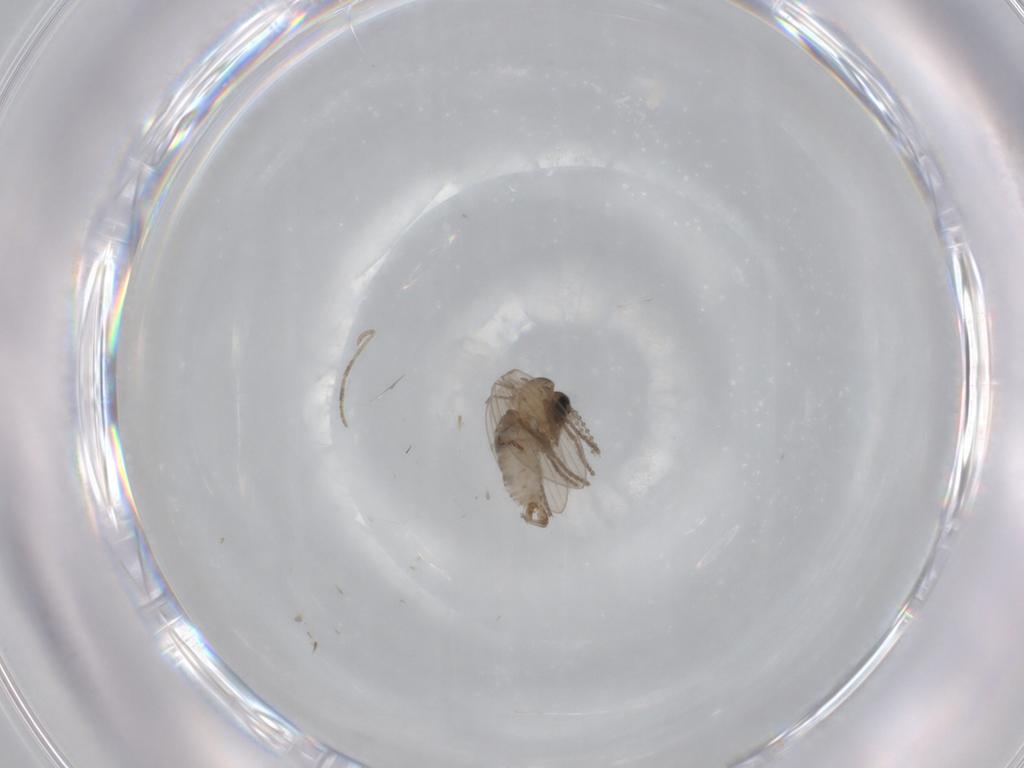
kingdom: Animalia
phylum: Arthropoda
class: Insecta
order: Diptera
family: Psychodidae
